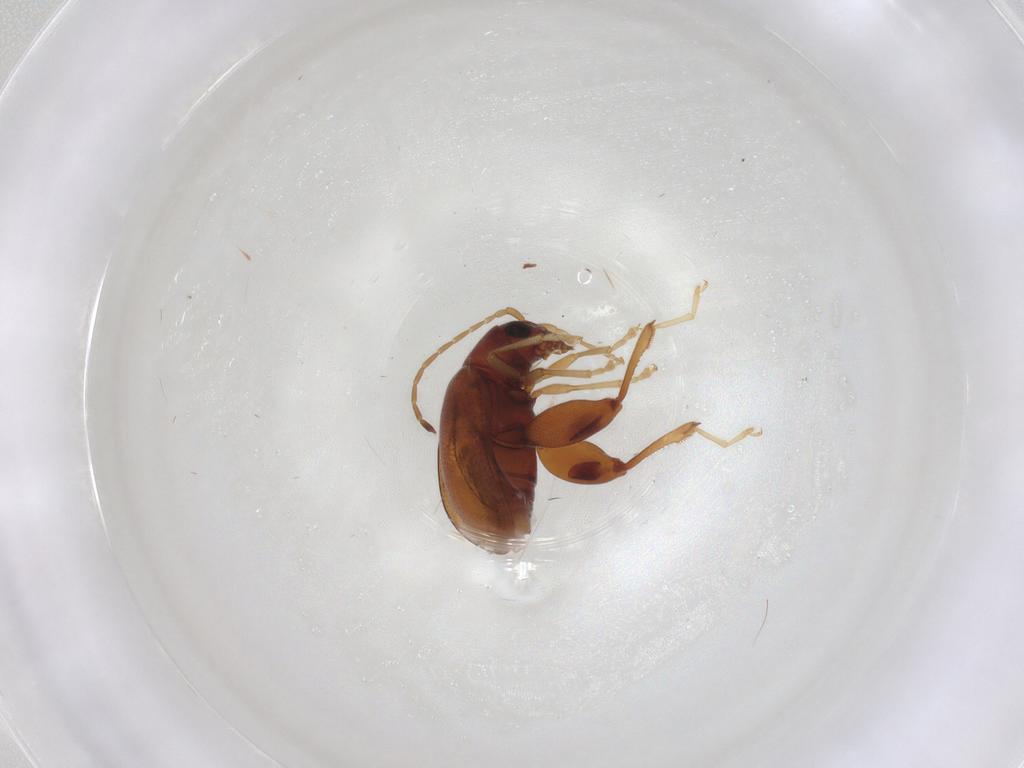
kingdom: Animalia
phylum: Arthropoda
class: Insecta
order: Coleoptera
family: Chrysomelidae
